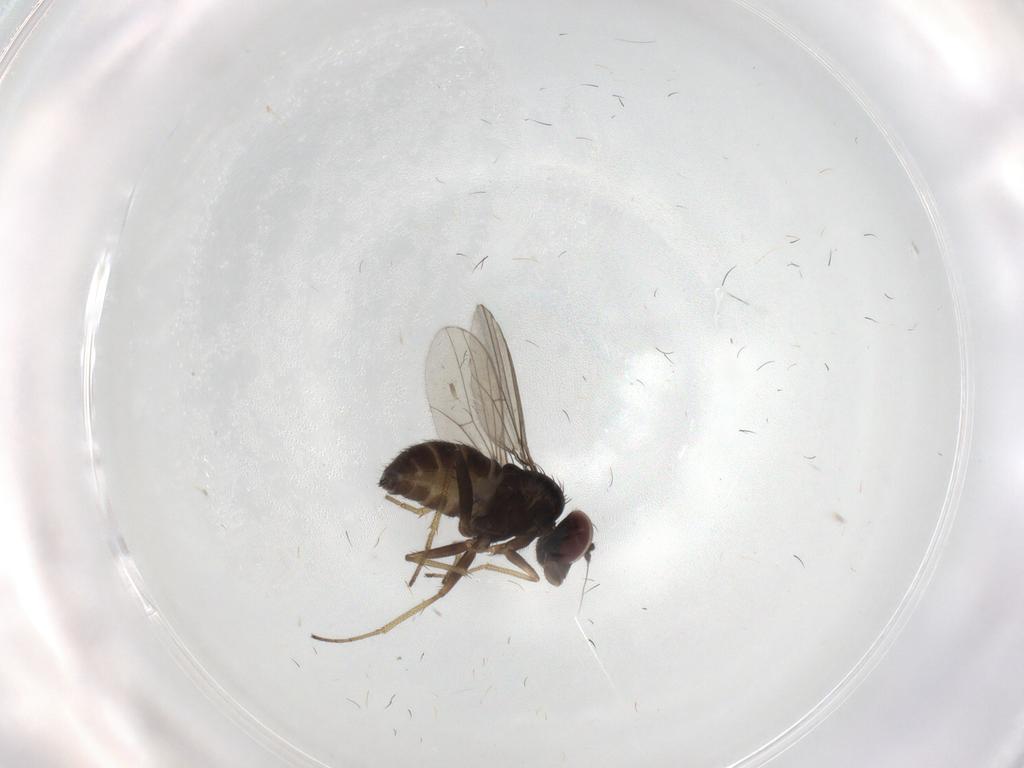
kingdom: Animalia
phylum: Arthropoda
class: Insecta
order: Diptera
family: Dolichopodidae
